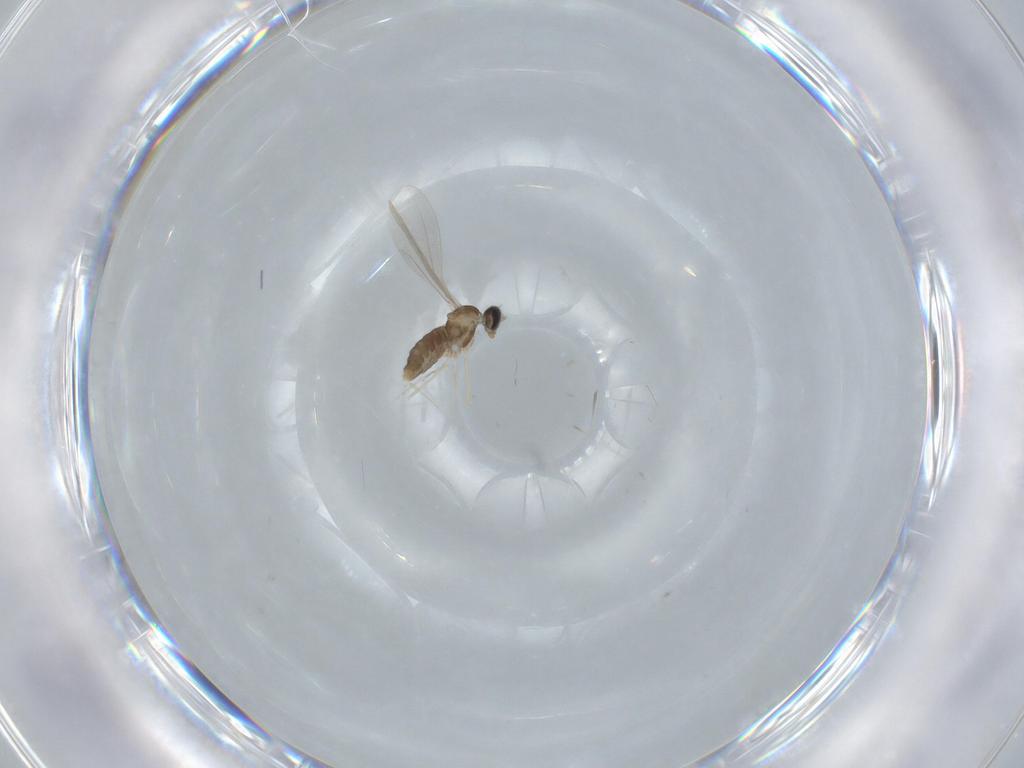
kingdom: Animalia
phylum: Arthropoda
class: Insecta
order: Diptera
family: Cecidomyiidae
